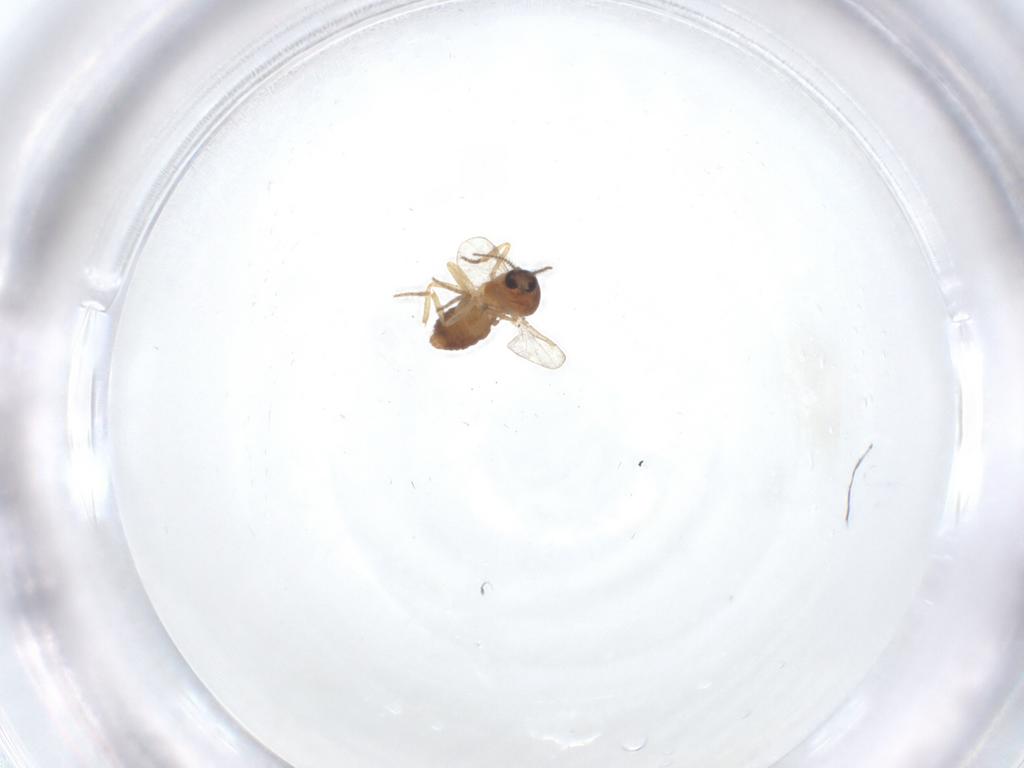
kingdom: Animalia
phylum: Arthropoda
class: Insecta
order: Diptera
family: Ceratopogonidae
